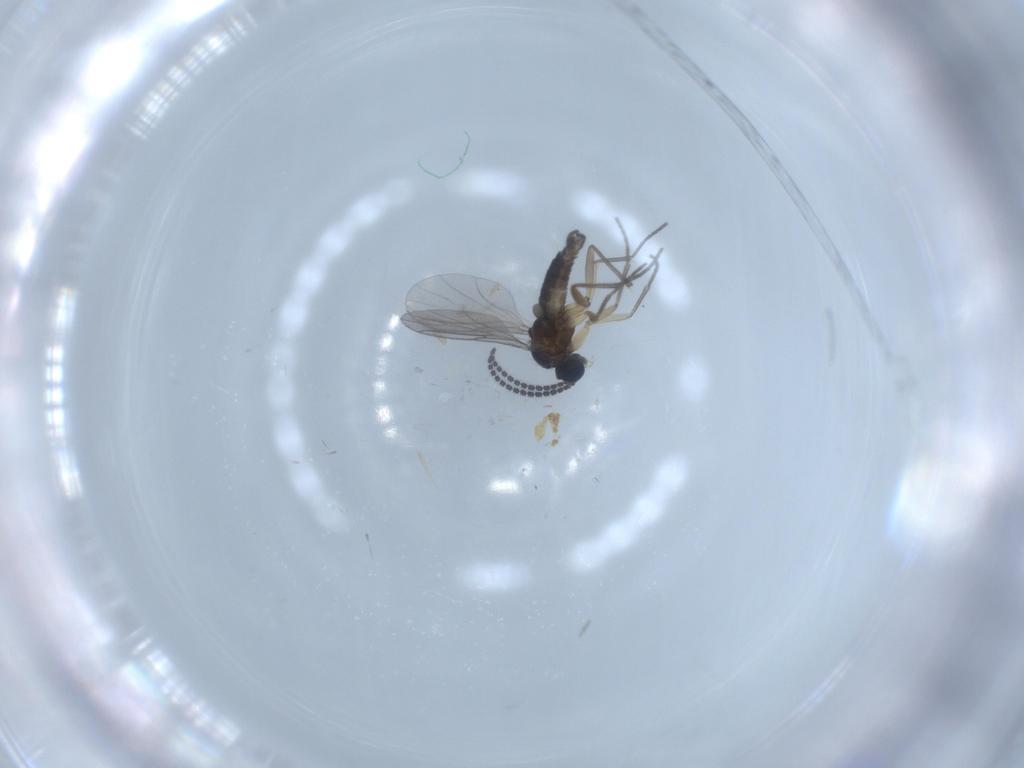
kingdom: Animalia
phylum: Arthropoda
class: Insecta
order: Diptera
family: Sciaridae
